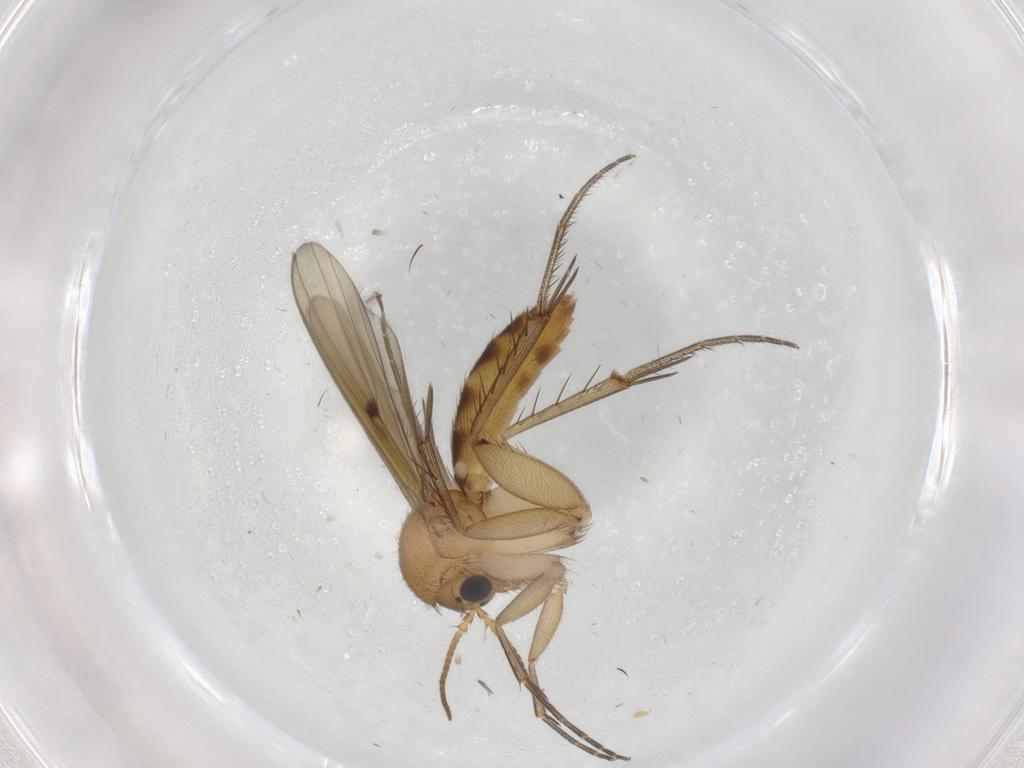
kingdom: Animalia
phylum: Arthropoda
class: Insecta
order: Diptera
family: Mycetophilidae
